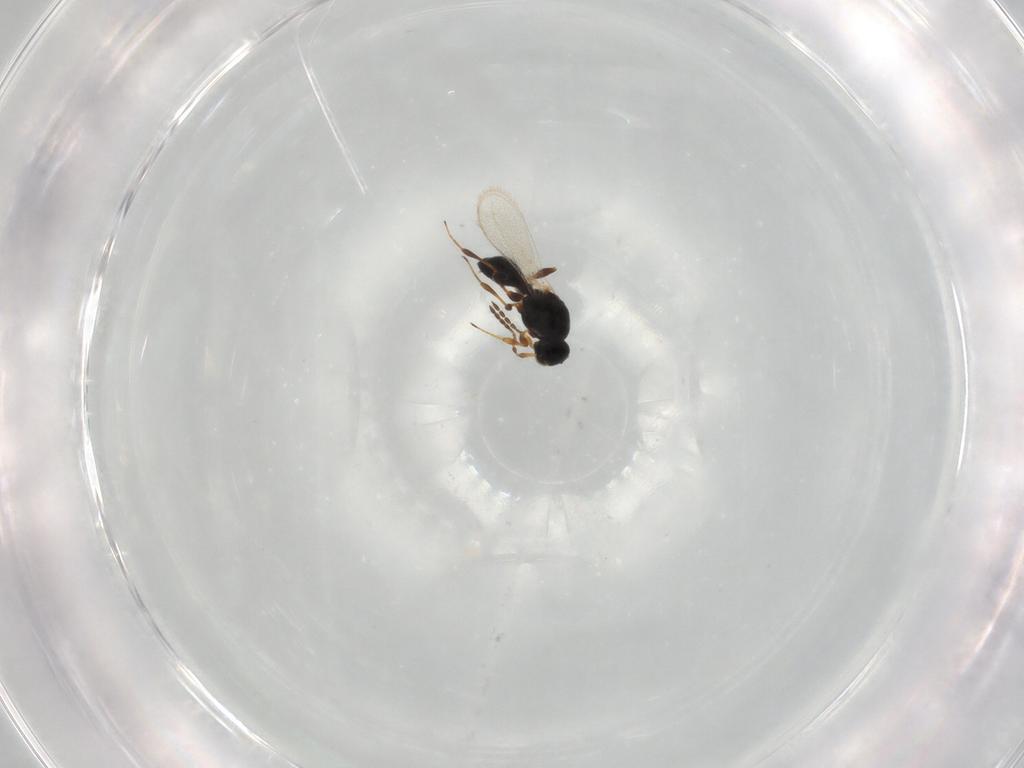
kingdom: Animalia
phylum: Arthropoda
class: Insecta
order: Hymenoptera
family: Platygastridae
